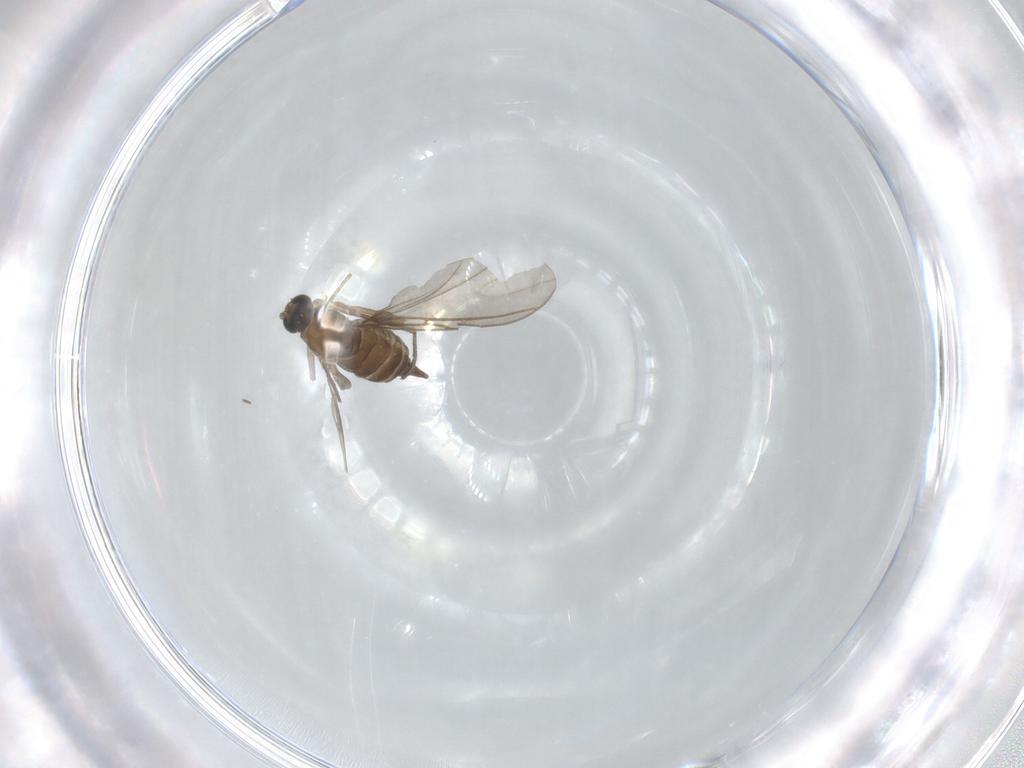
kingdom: Animalia
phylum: Arthropoda
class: Insecta
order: Diptera
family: Sciaridae
